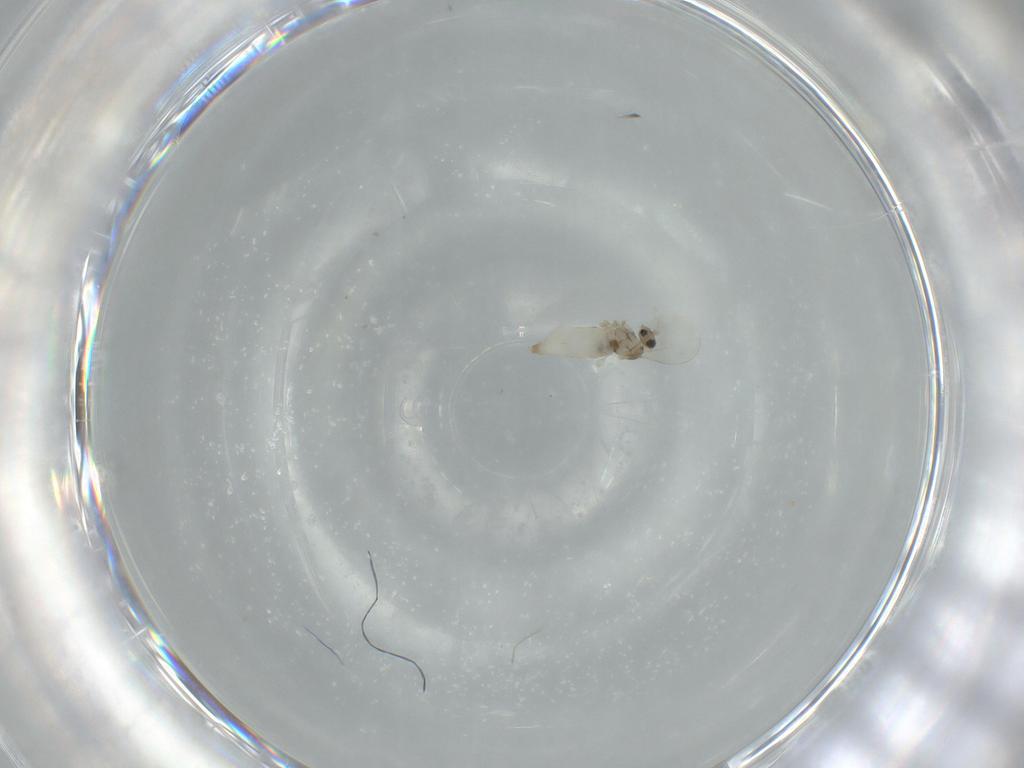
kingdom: Animalia
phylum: Arthropoda
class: Insecta
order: Diptera
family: Cecidomyiidae
